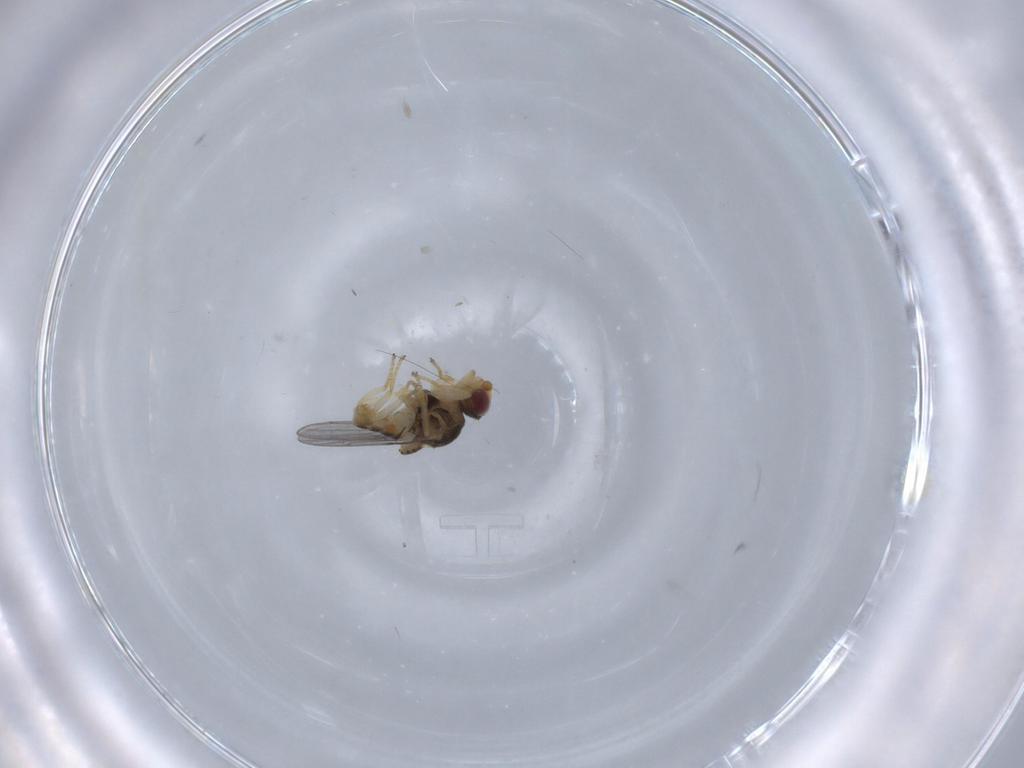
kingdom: Animalia
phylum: Arthropoda
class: Insecta
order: Diptera
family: Chloropidae
